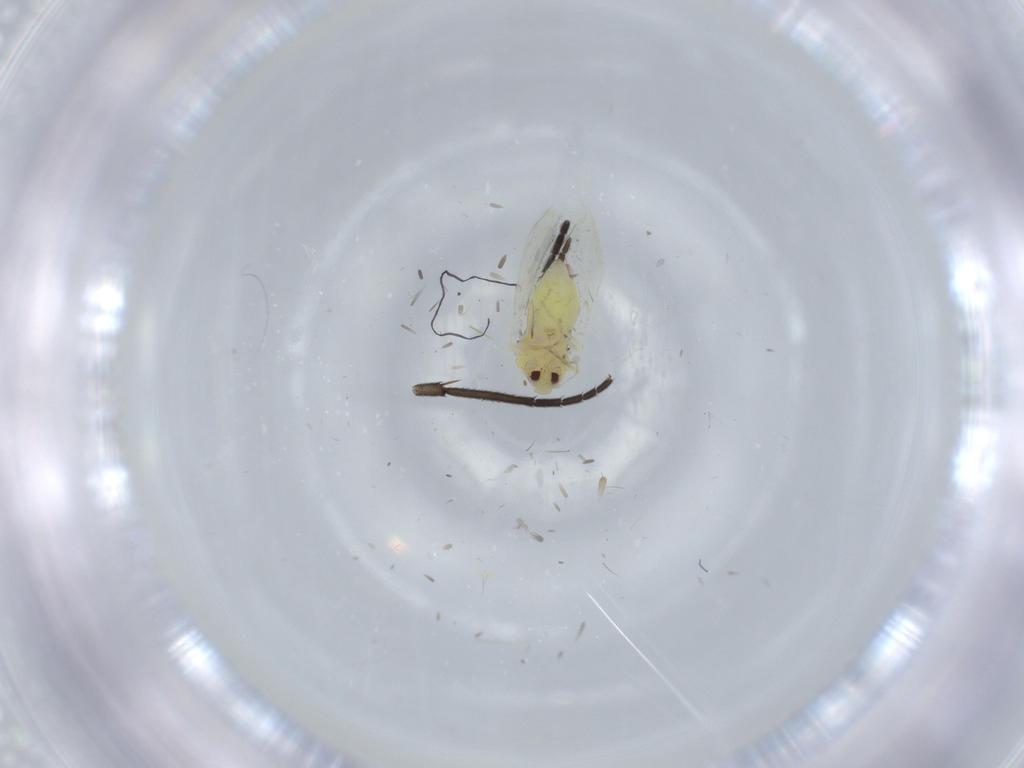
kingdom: Animalia
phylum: Arthropoda
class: Insecta
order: Hemiptera
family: Aleyrodidae
